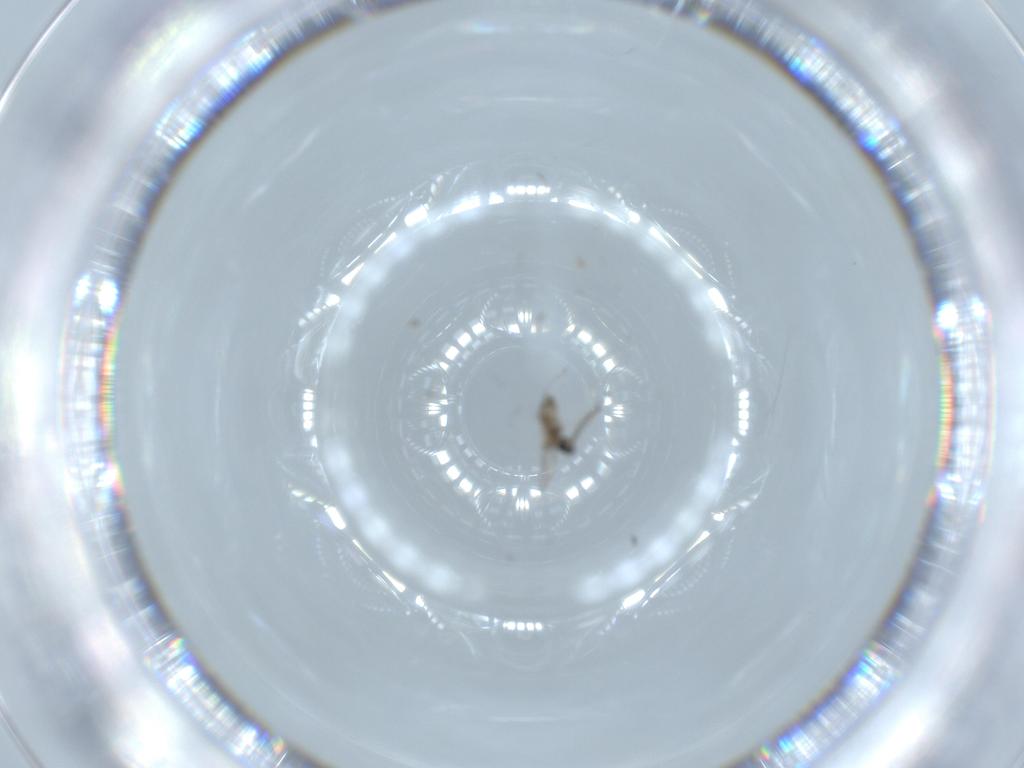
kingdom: Animalia
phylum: Arthropoda
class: Insecta
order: Diptera
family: Cecidomyiidae
